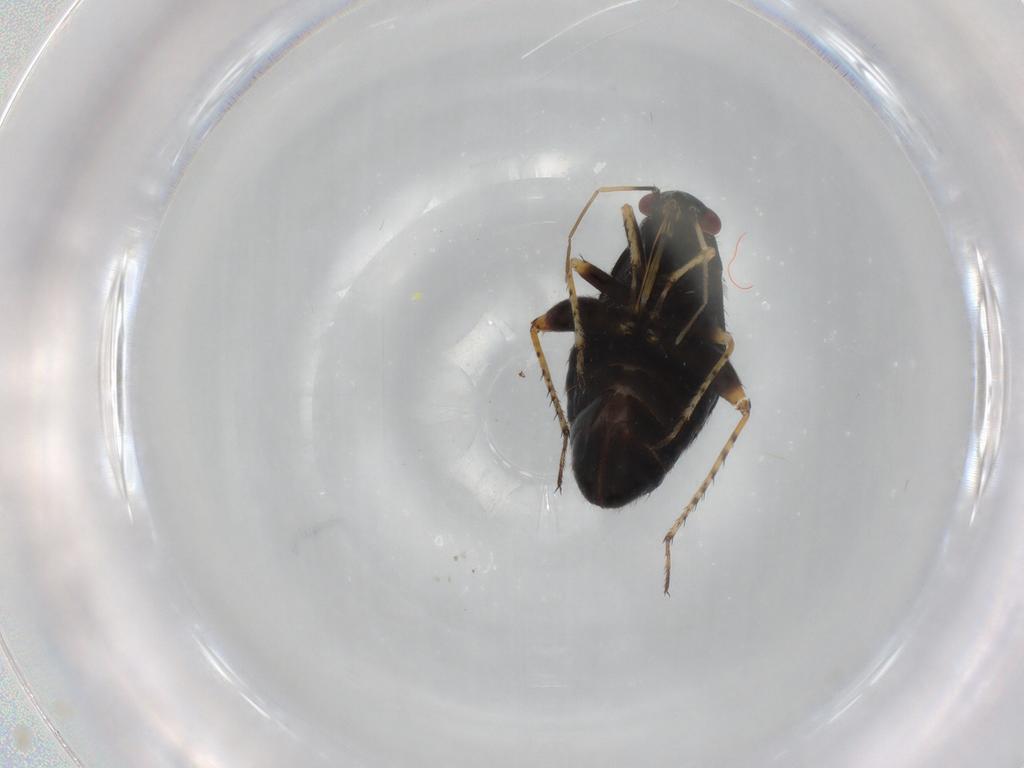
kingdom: Animalia
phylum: Arthropoda
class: Insecta
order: Hemiptera
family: Miridae
